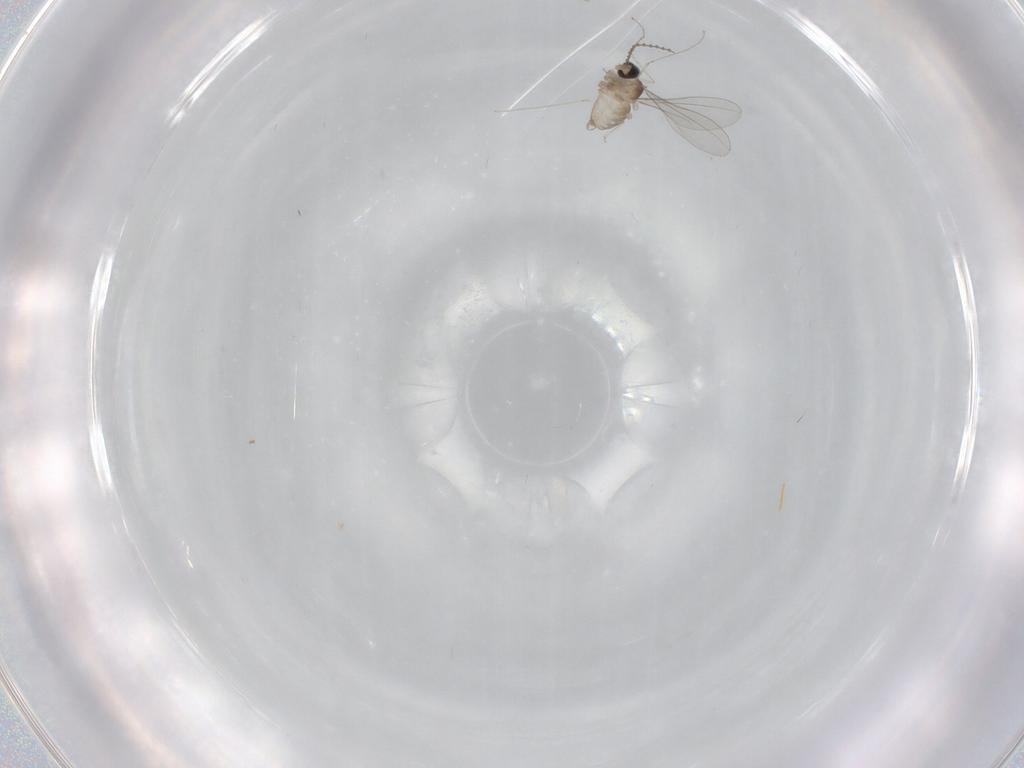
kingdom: Animalia
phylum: Arthropoda
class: Insecta
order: Diptera
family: Cecidomyiidae
